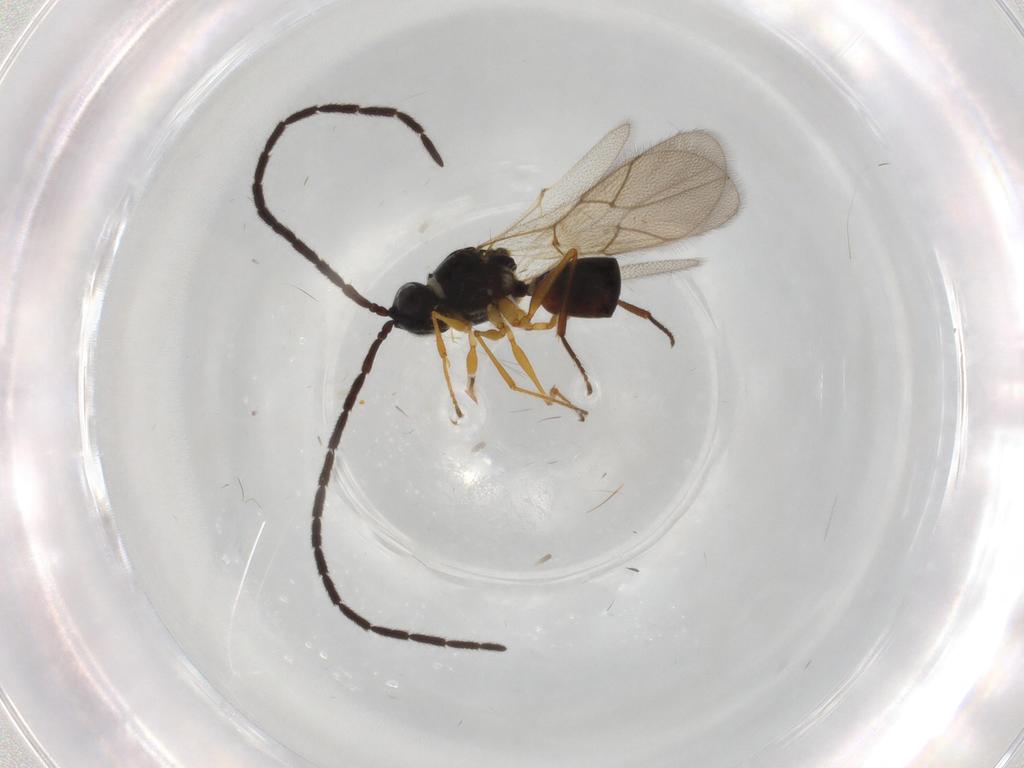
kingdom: Animalia
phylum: Arthropoda
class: Insecta
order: Hymenoptera
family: Figitidae
